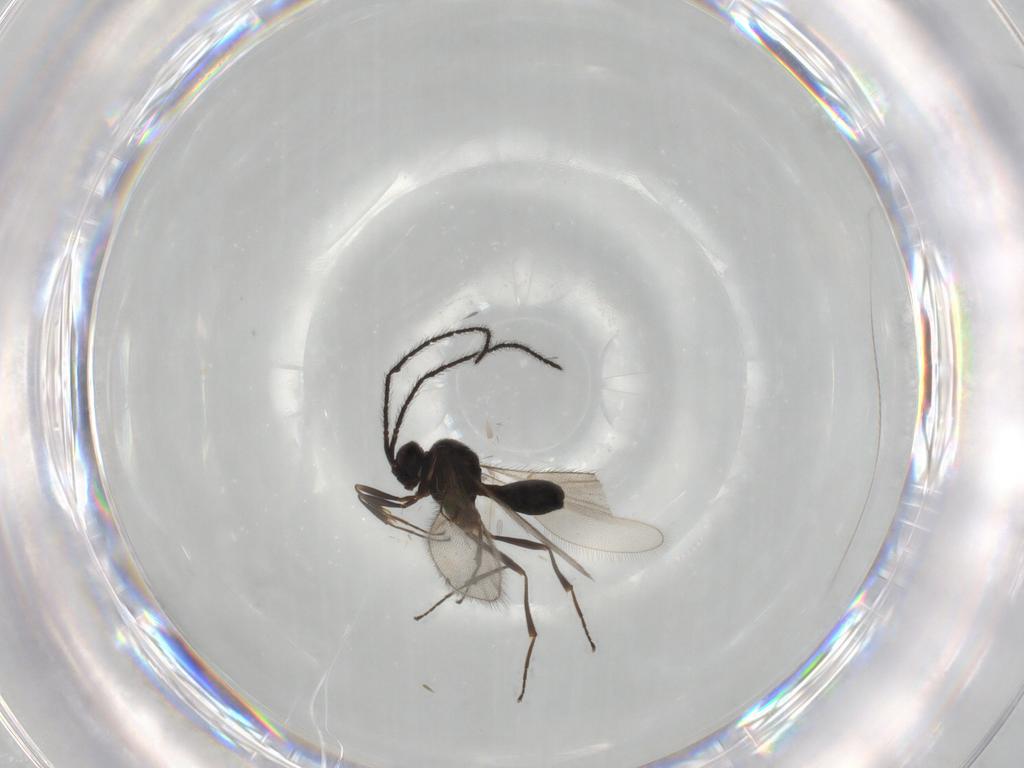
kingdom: Animalia
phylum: Arthropoda
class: Insecta
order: Hymenoptera
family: Scelionidae
